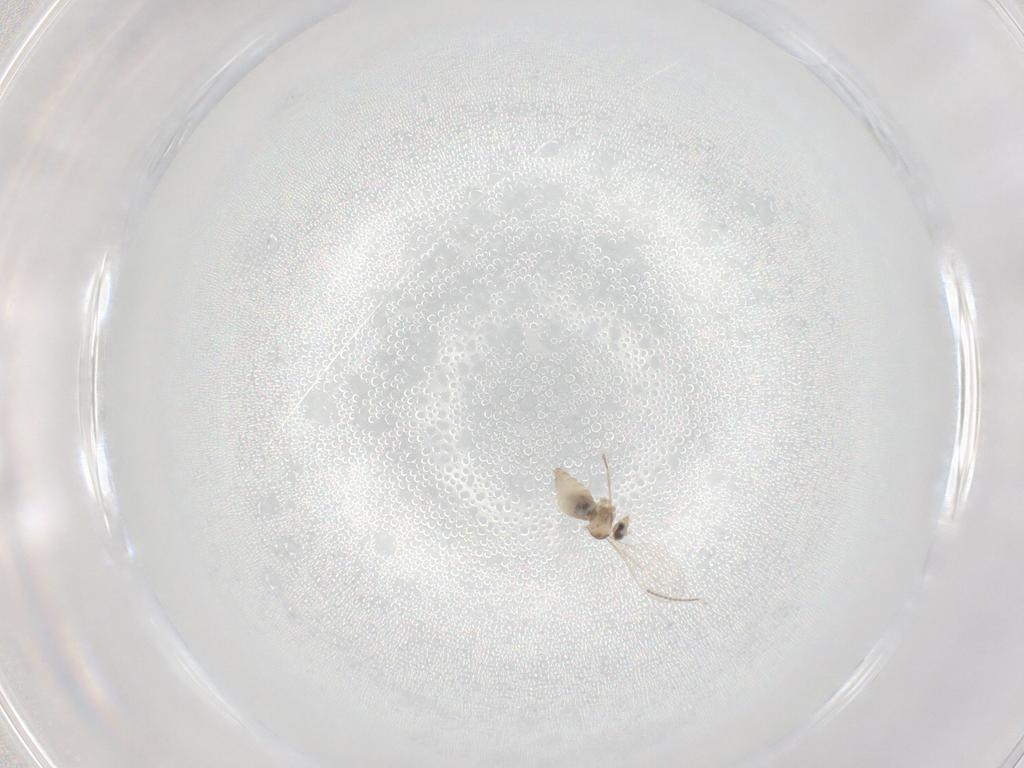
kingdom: Animalia
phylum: Arthropoda
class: Insecta
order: Diptera
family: Cecidomyiidae
